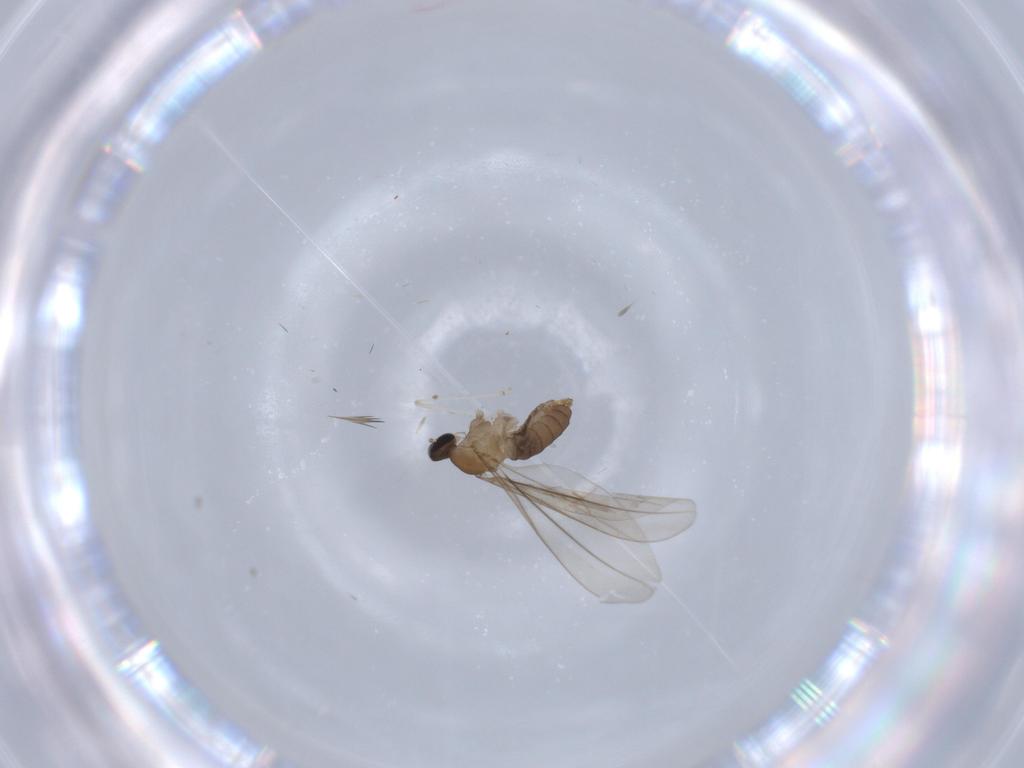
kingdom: Animalia
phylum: Arthropoda
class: Insecta
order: Diptera
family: Cecidomyiidae
